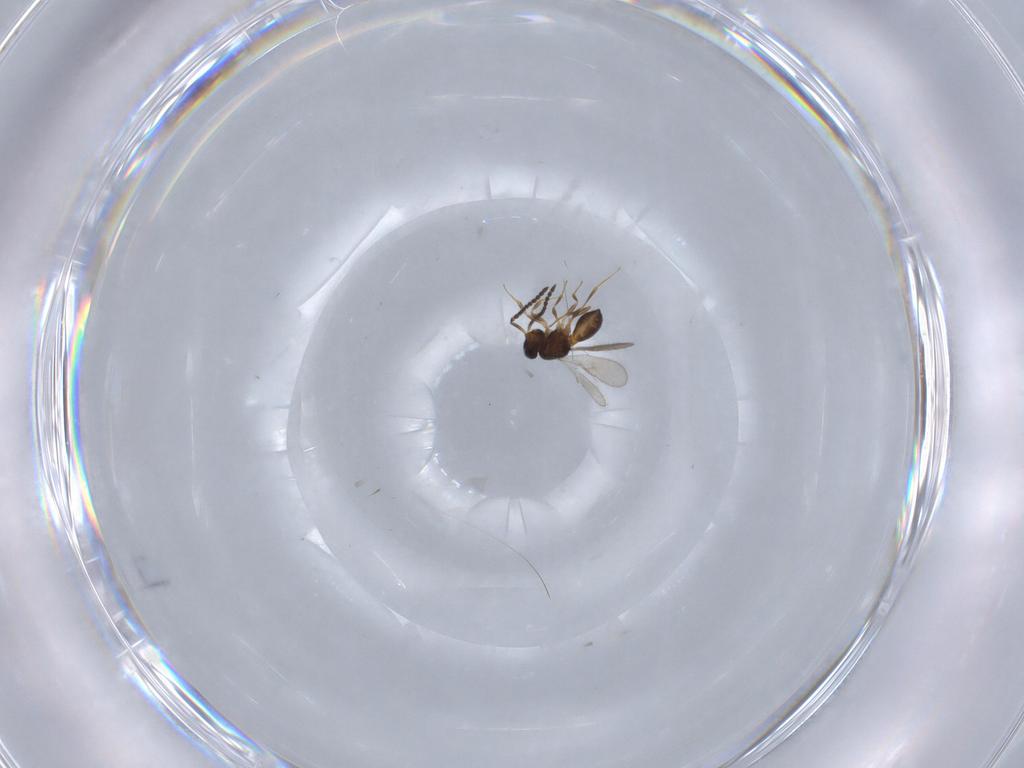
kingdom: Animalia
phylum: Arthropoda
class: Insecta
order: Hymenoptera
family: Scelionidae
